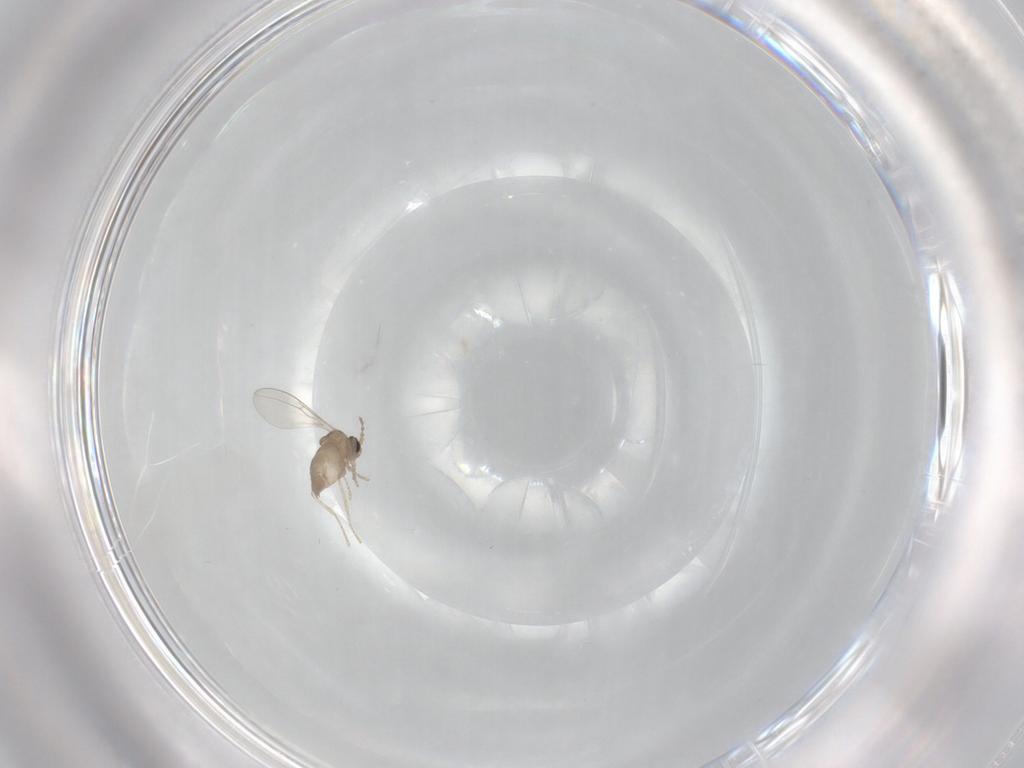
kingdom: Animalia
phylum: Arthropoda
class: Insecta
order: Diptera
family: Cecidomyiidae
